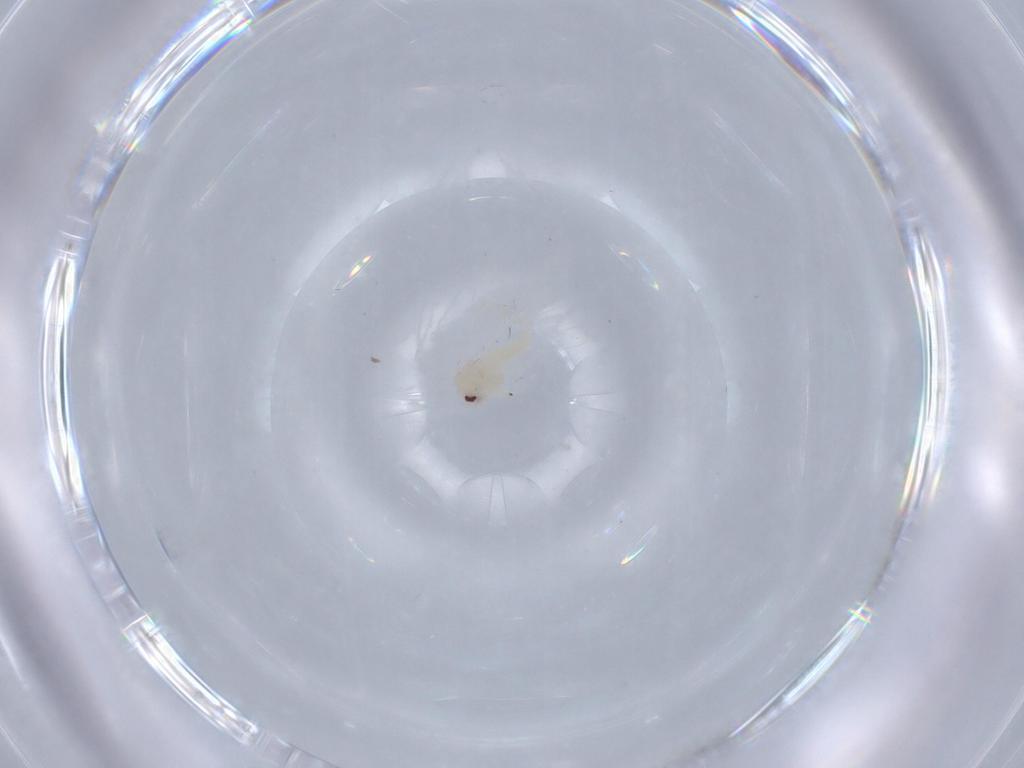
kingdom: Animalia
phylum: Arthropoda
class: Insecta
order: Hemiptera
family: Aleyrodidae
